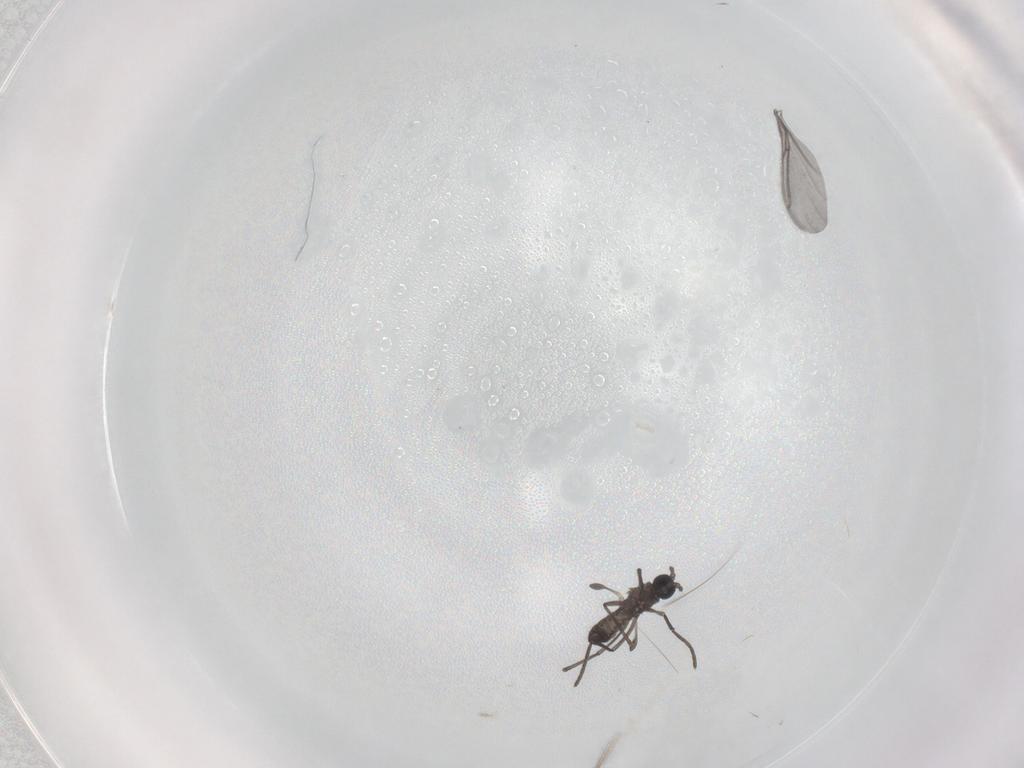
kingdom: Animalia
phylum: Arthropoda
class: Insecta
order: Diptera
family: Sciaridae
